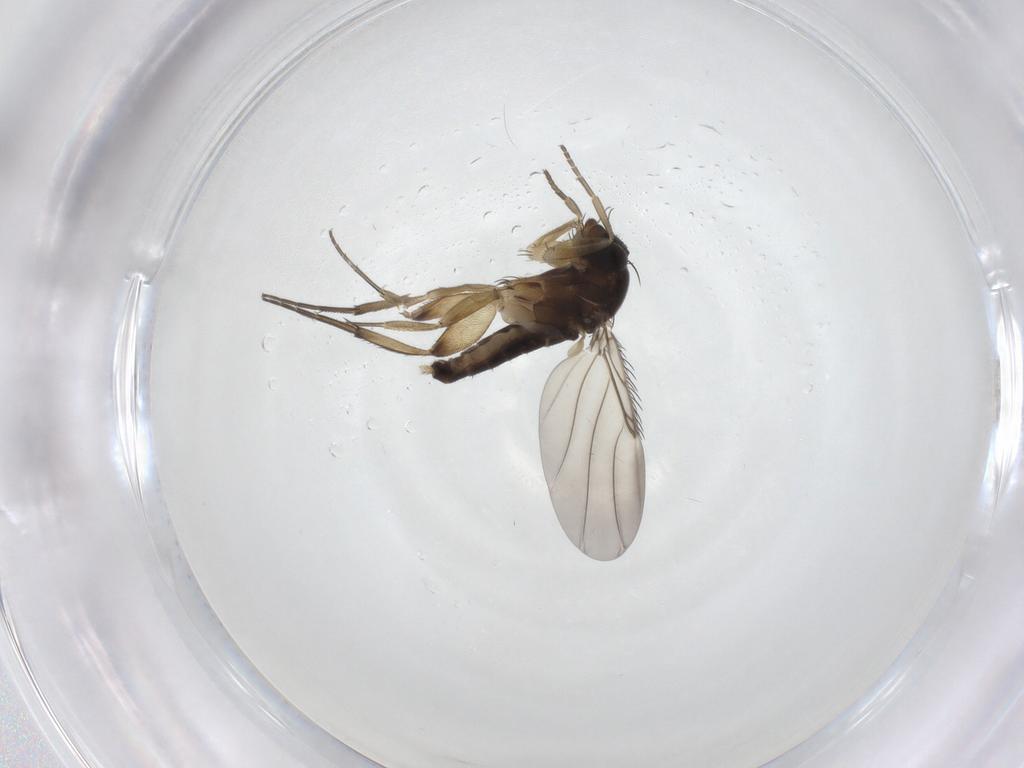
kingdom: Animalia
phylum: Arthropoda
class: Insecta
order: Diptera
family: Phoridae
